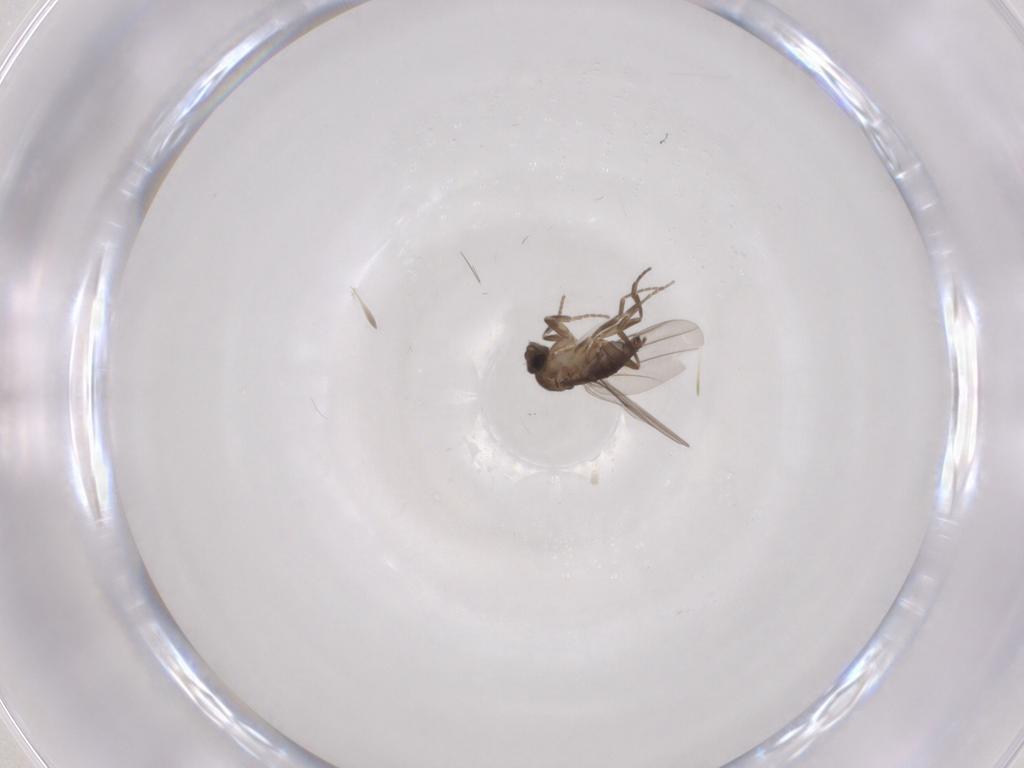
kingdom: Animalia
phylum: Arthropoda
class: Insecta
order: Diptera
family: Phoridae
